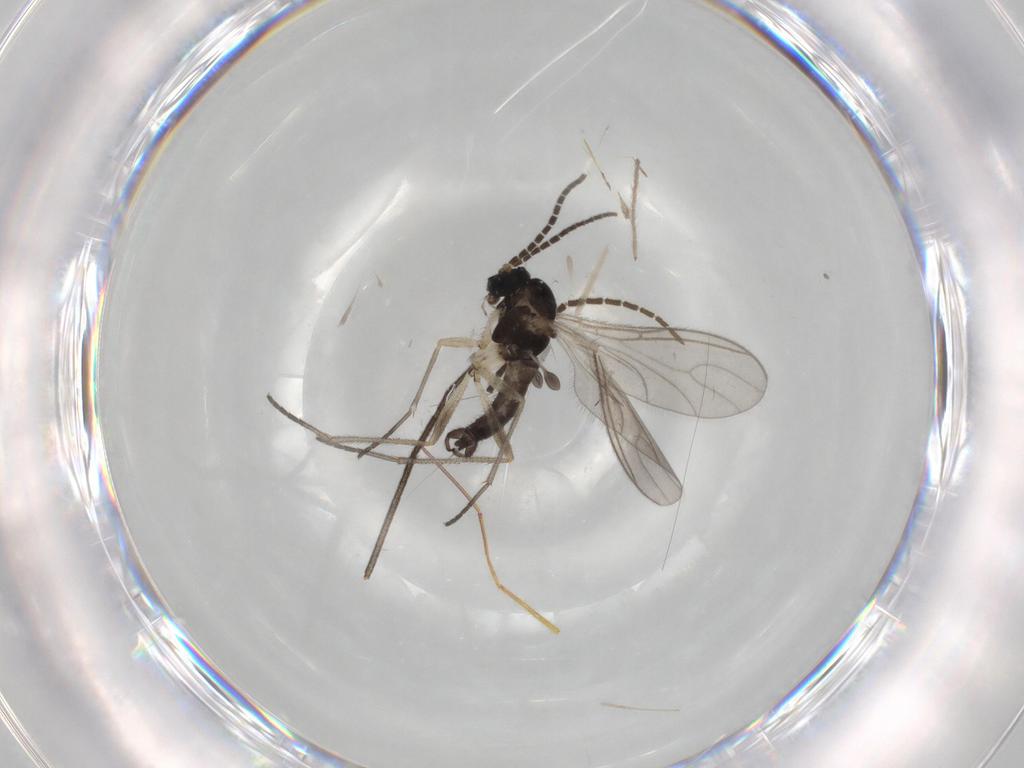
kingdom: Animalia
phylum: Arthropoda
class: Insecta
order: Diptera
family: Sciaridae
